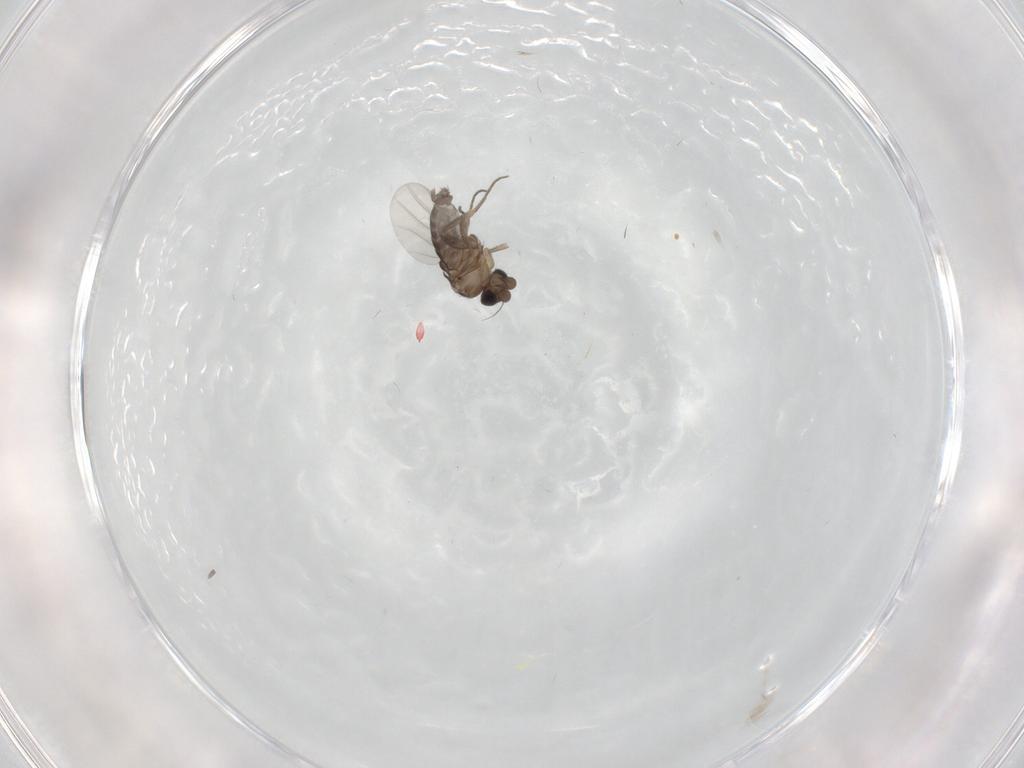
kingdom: Animalia
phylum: Arthropoda
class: Insecta
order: Diptera
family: Phoridae
